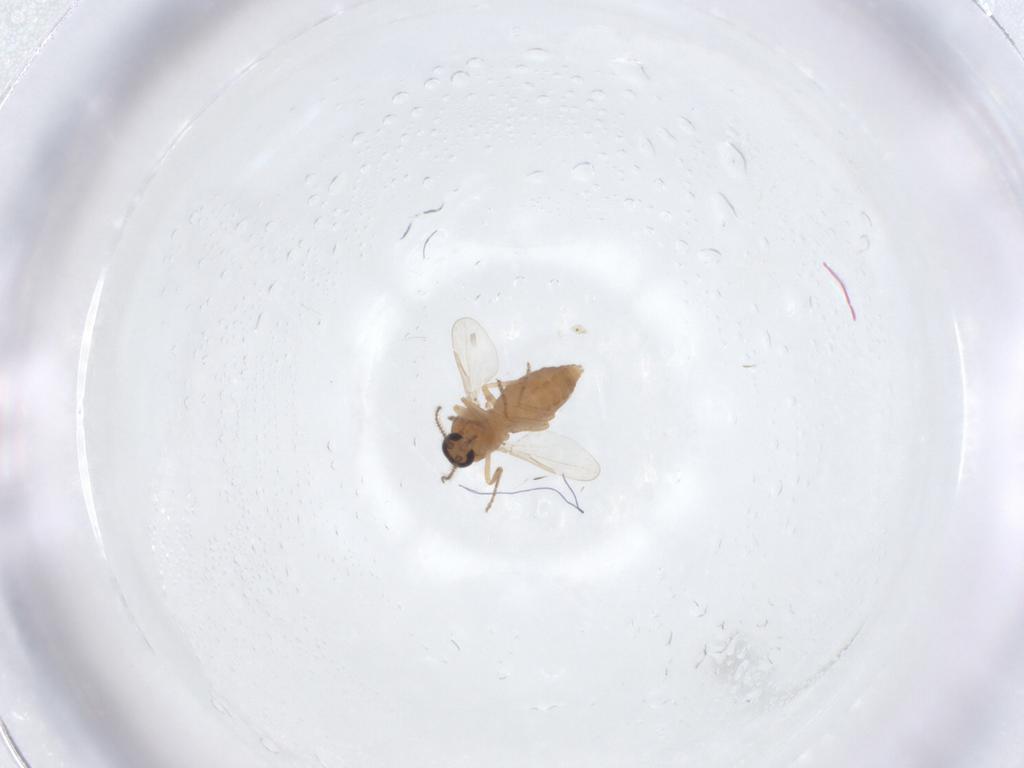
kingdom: Animalia
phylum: Arthropoda
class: Insecta
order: Diptera
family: Ceratopogonidae
